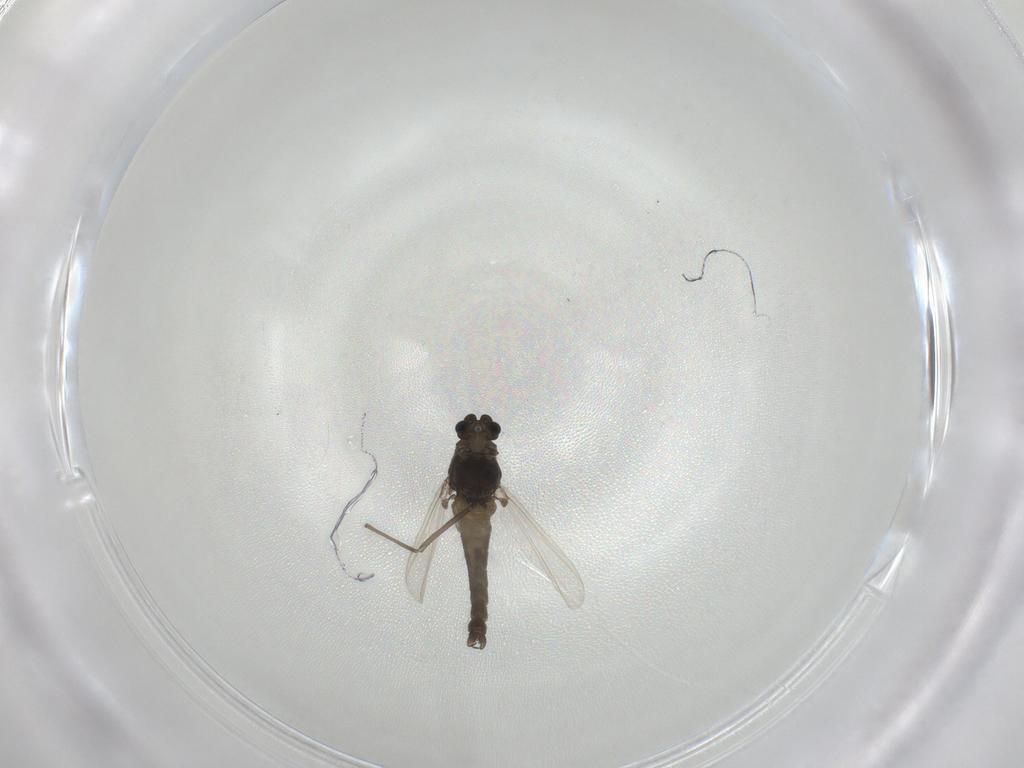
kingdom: Animalia
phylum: Arthropoda
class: Insecta
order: Diptera
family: Chironomidae
